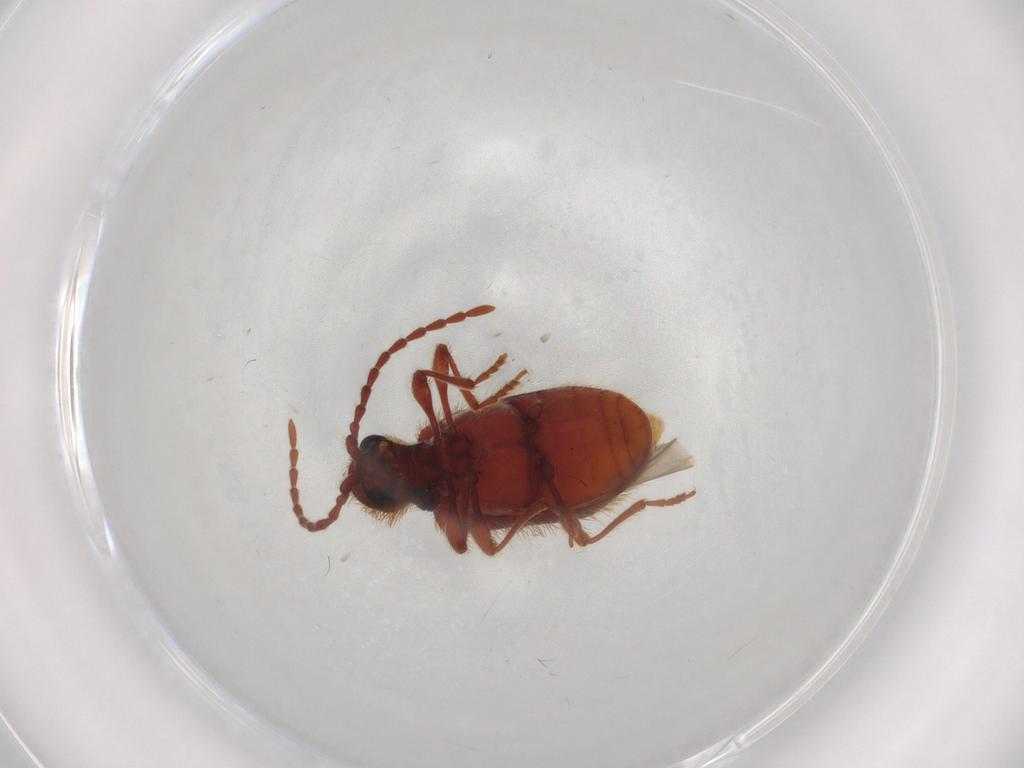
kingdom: Animalia
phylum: Arthropoda
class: Insecta
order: Coleoptera
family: Ptinidae
